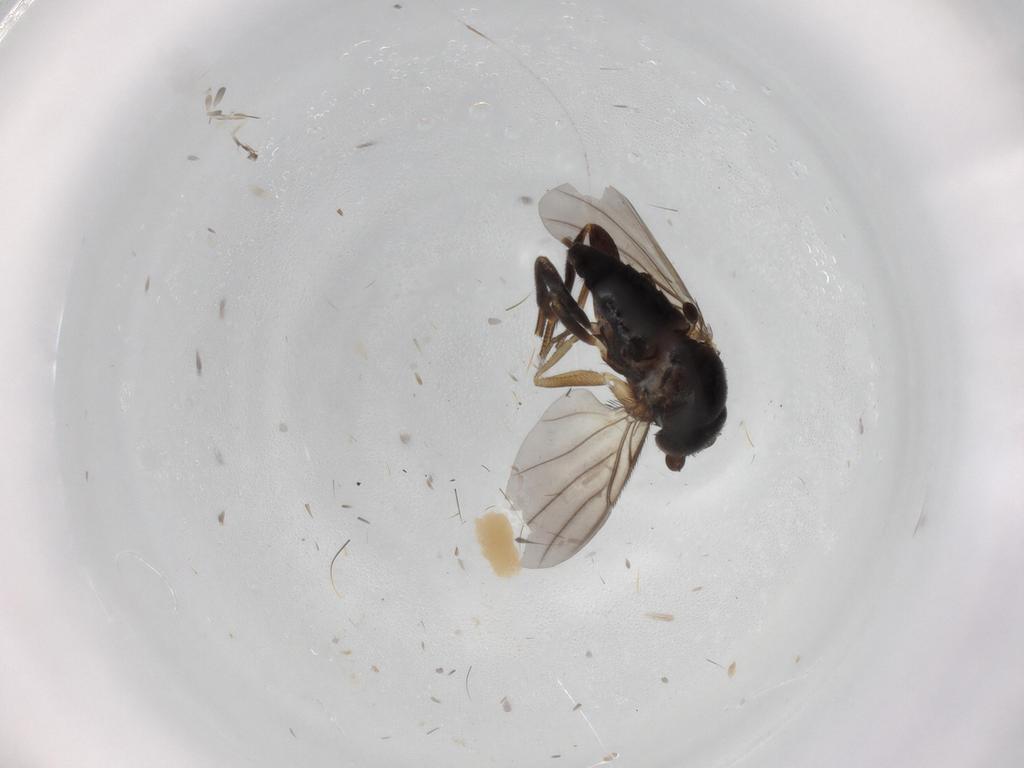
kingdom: Animalia
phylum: Arthropoda
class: Insecta
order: Diptera
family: Phoridae
